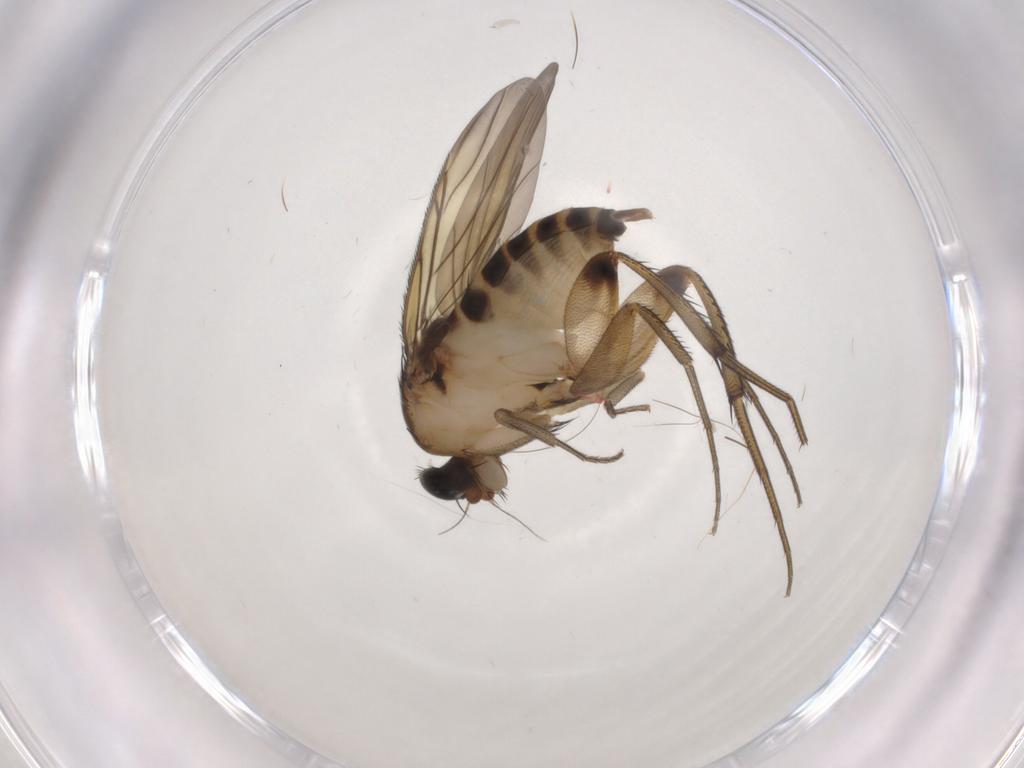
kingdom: Animalia
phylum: Arthropoda
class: Insecta
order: Diptera
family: Phoridae
